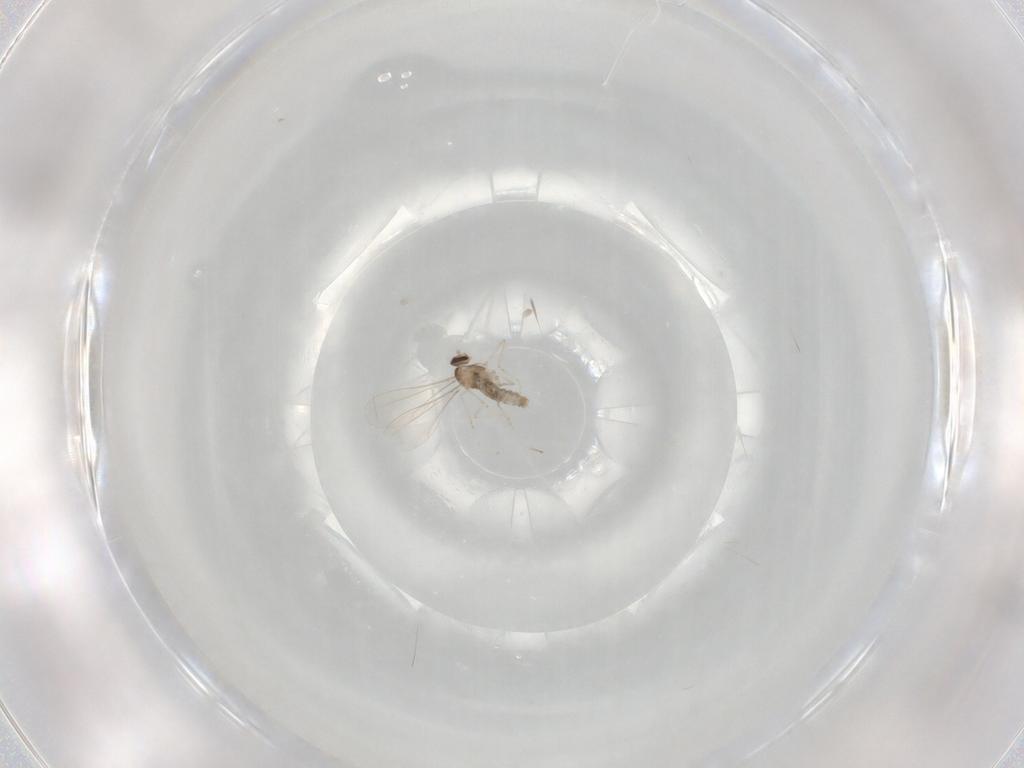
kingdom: Animalia
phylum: Arthropoda
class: Insecta
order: Diptera
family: Cecidomyiidae
